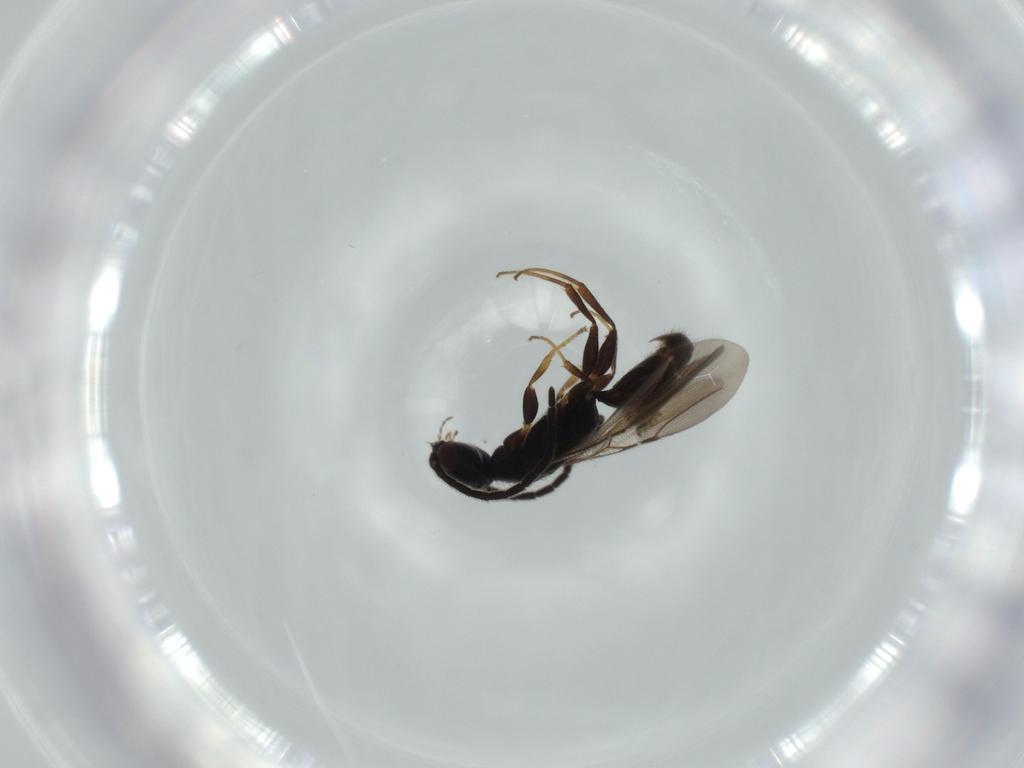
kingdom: Animalia
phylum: Arthropoda
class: Insecta
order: Hymenoptera
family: Bethylidae
